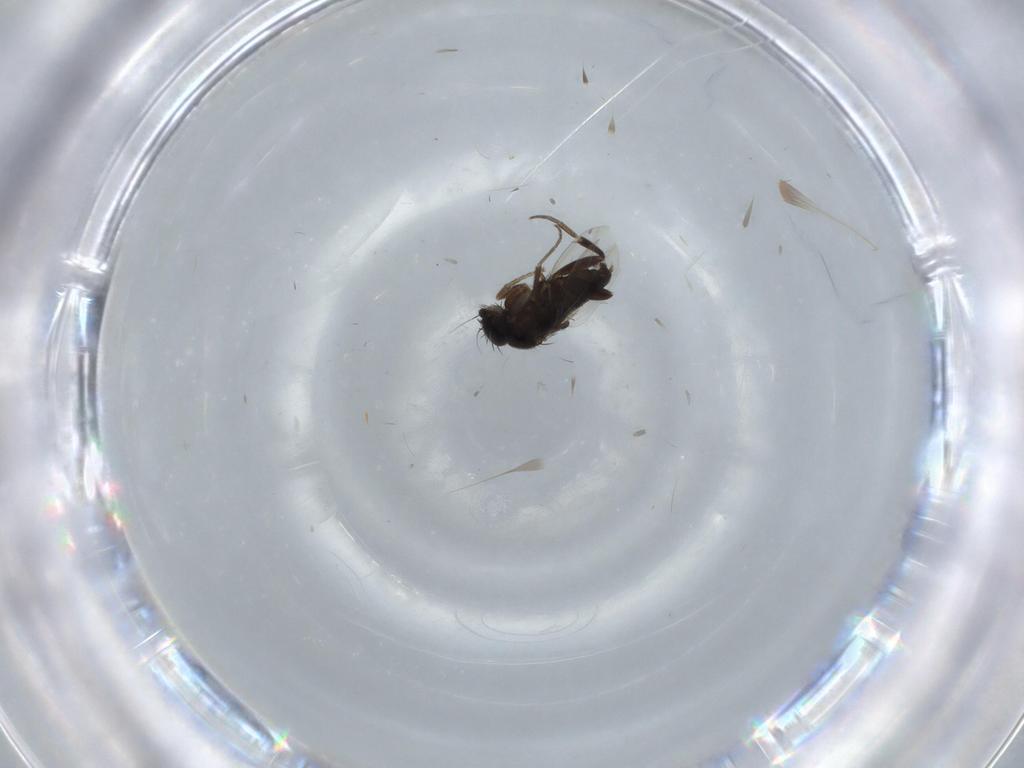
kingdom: Animalia
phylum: Arthropoda
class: Insecta
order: Diptera
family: Phoridae
